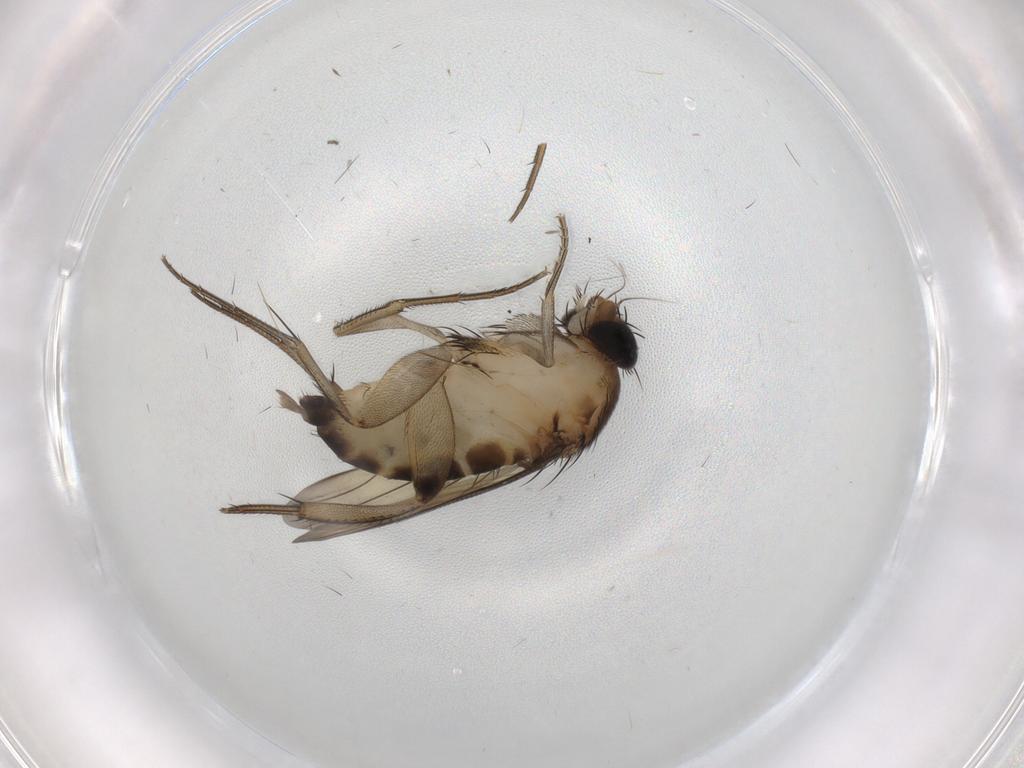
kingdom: Animalia
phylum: Arthropoda
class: Insecta
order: Diptera
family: Phoridae
